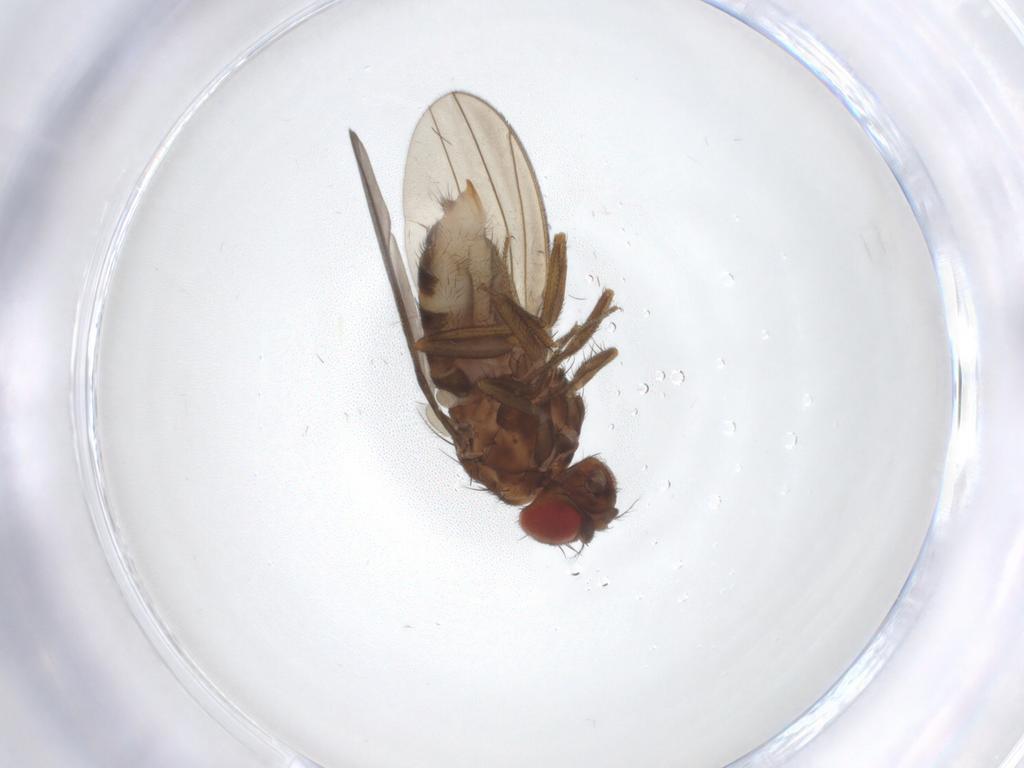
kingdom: Animalia
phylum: Arthropoda
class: Insecta
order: Diptera
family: Drosophilidae
